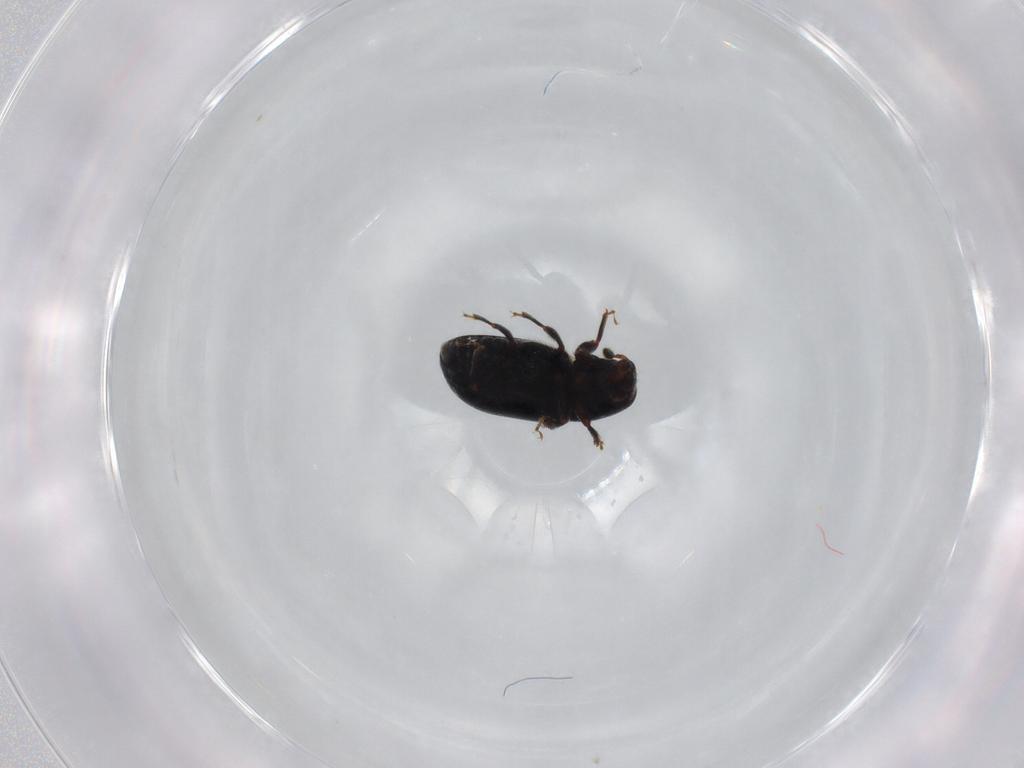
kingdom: Animalia
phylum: Arthropoda
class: Insecta
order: Coleoptera
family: Curculionidae
